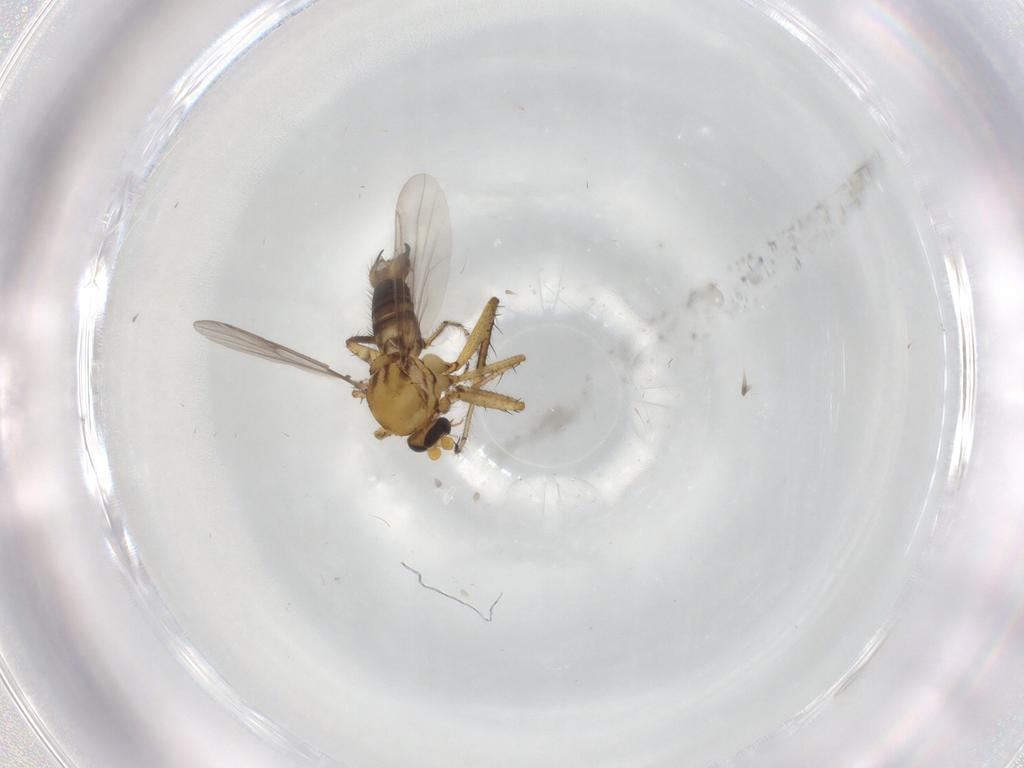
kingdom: Animalia
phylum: Arthropoda
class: Insecta
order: Diptera
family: Ceratopogonidae
